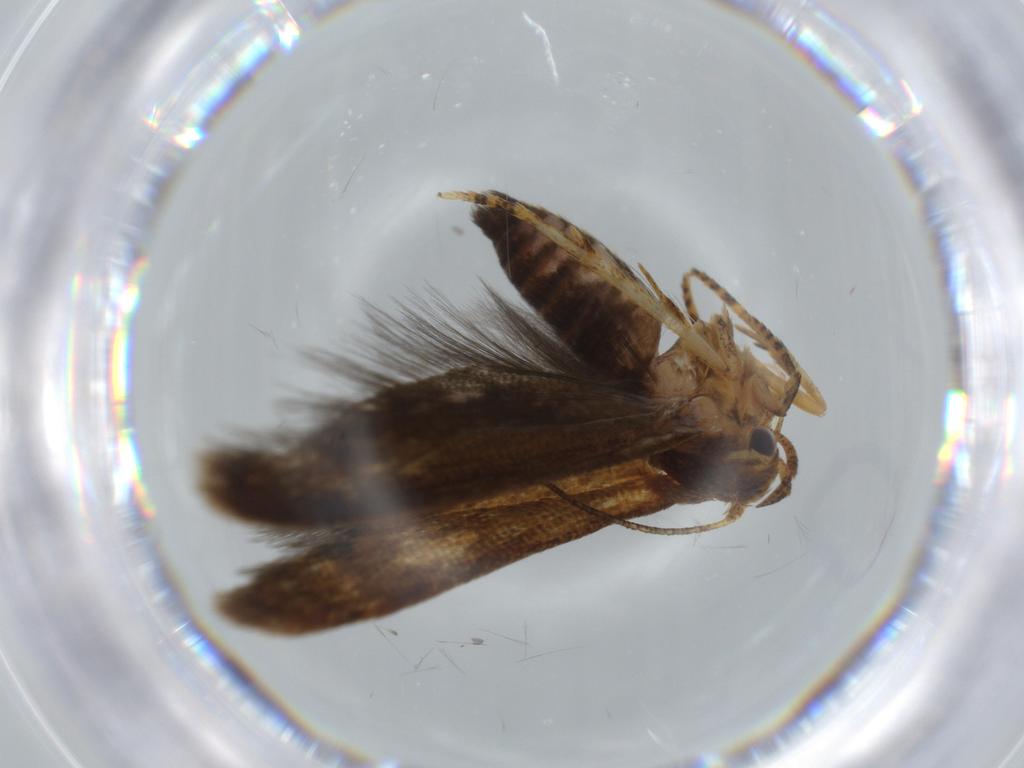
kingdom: Animalia
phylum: Arthropoda
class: Insecta
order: Lepidoptera
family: Coleophoridae
